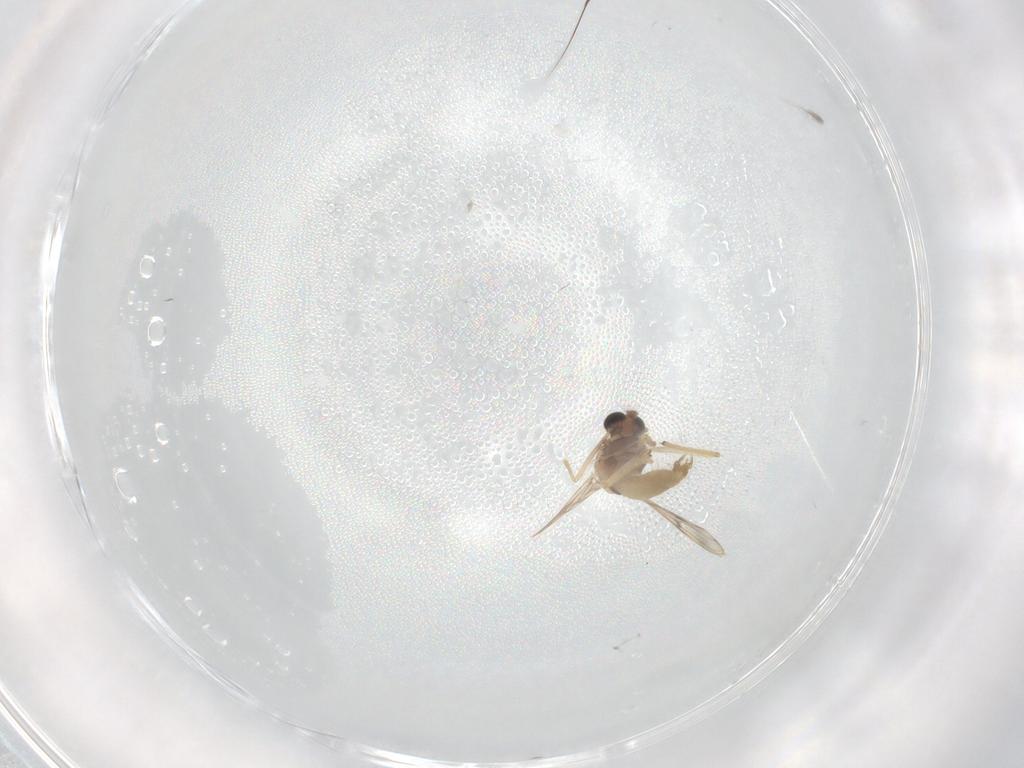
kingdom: Animalia
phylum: Arthropoda
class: Insecta
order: Diptera
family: Chironomidae
